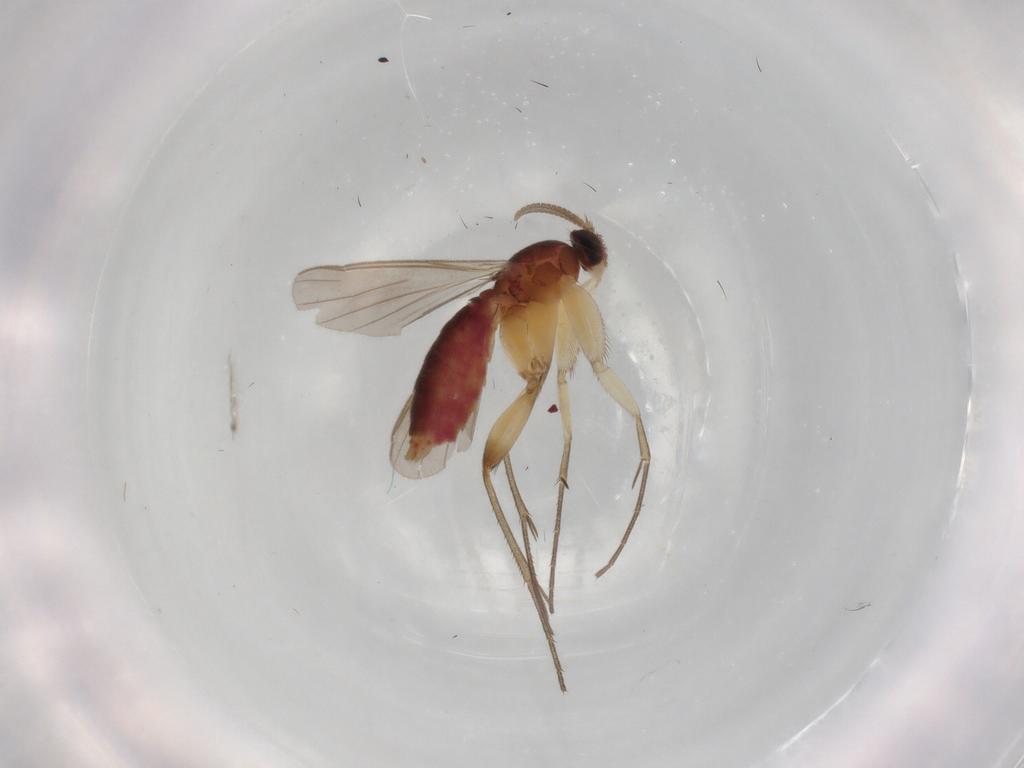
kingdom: Animalia
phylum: Arthropoda
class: Insecta
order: Diptera
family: Mycetophilidae
